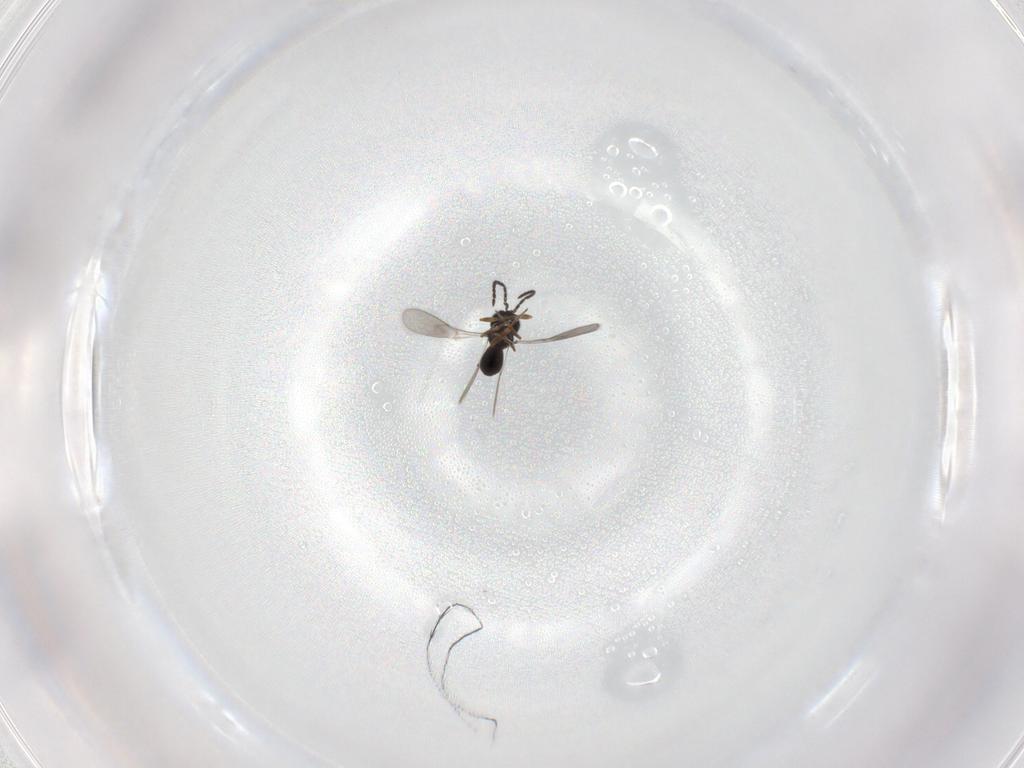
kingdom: Animalia
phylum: Arthropoda
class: Insecta
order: Hymenoptera
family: Scelionidae
